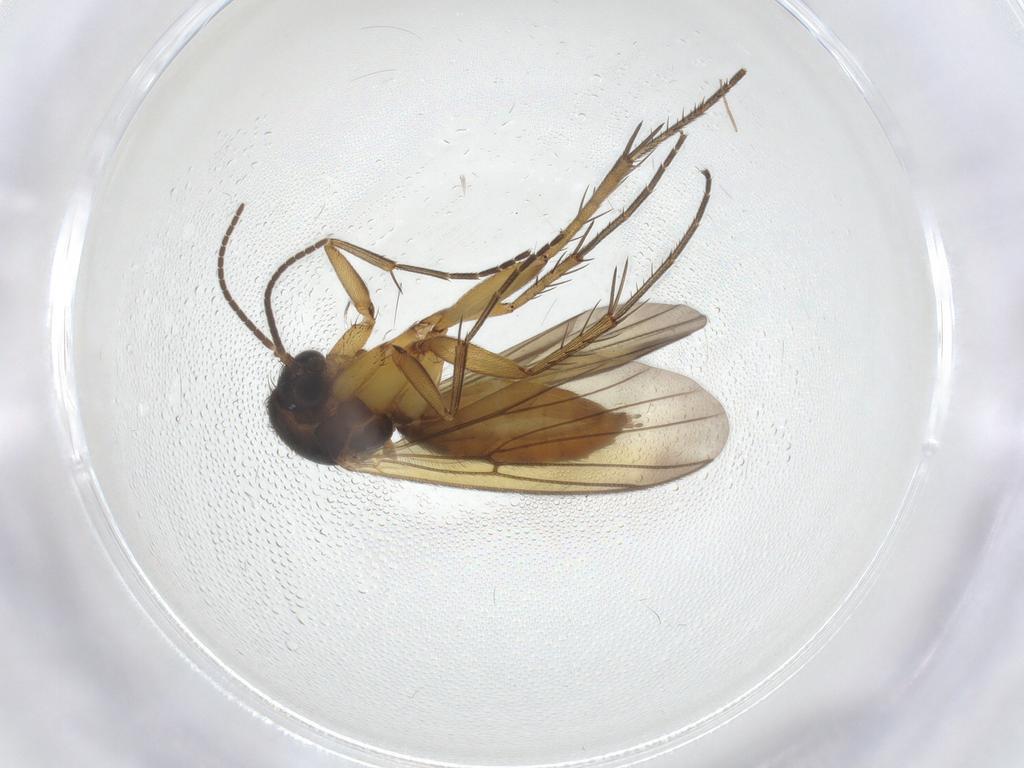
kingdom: Animalia
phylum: Arthropoda
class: Insecta
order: Diptera
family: Mycetophilidae
